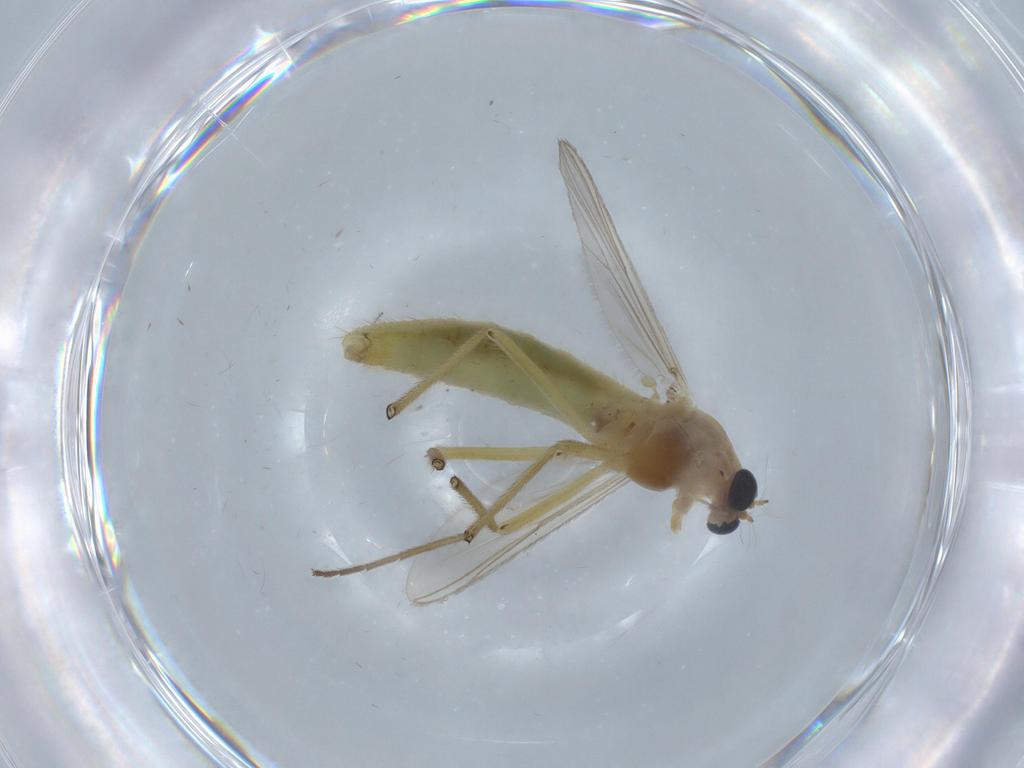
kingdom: Animalia
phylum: Arthropoda
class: Insecta
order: Diptera
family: Chironomidae
